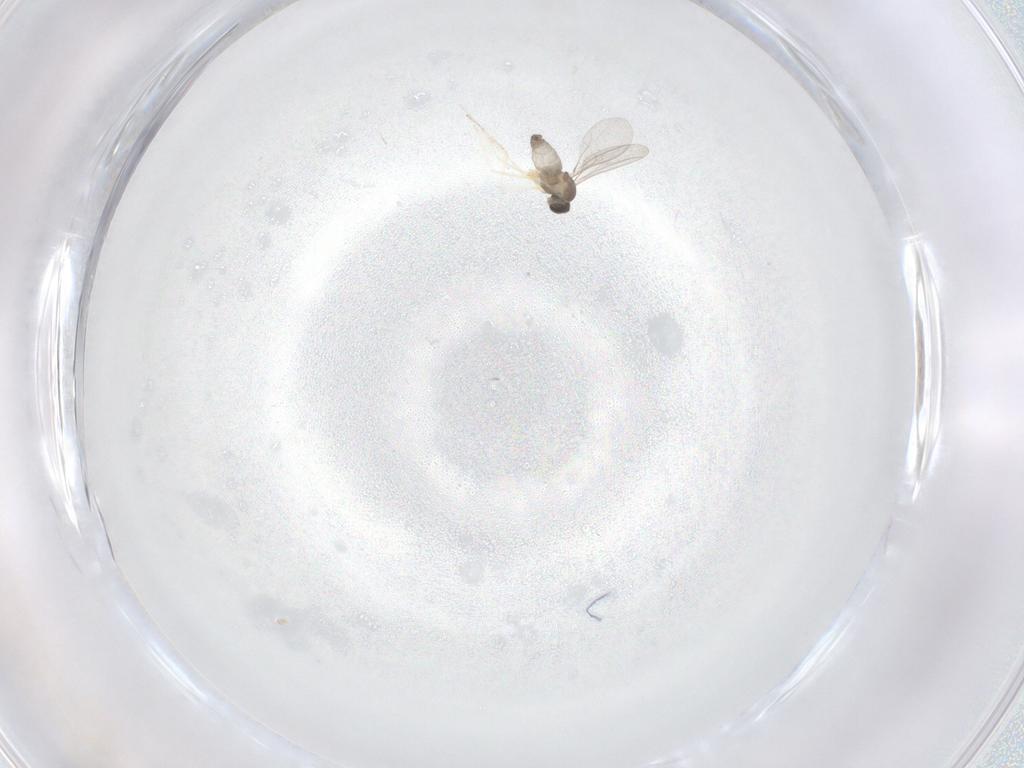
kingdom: Animalia
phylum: Arthropoda
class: Insecta
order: Diptera
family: Cecidomyiidae
